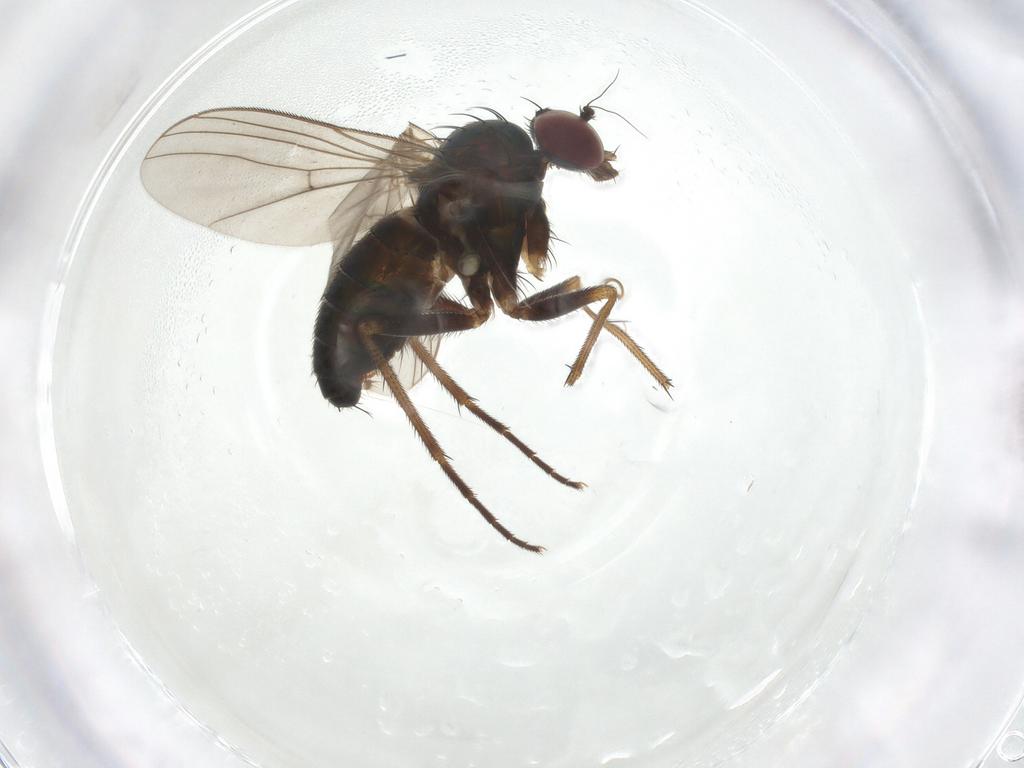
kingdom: Animalia
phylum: Arthropoda
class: Insecta
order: Diptera
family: Dolichopodidae
